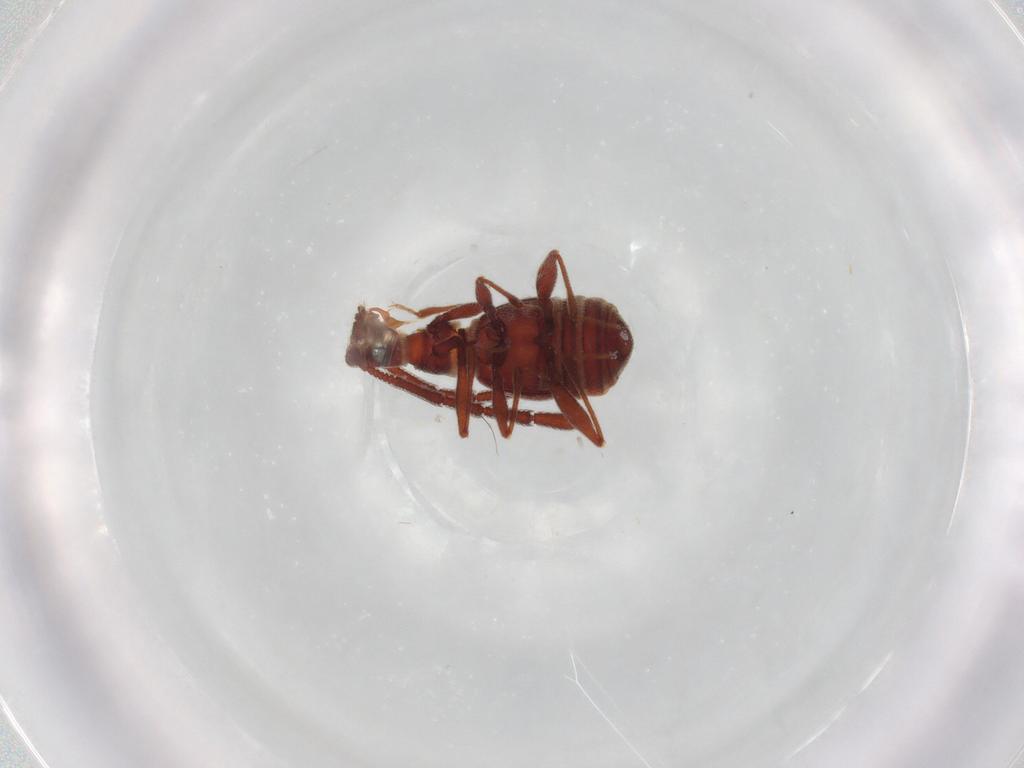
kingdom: Animalia
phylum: Arthropoda
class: Insecta
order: Coleoptera
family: Staphylinidae
